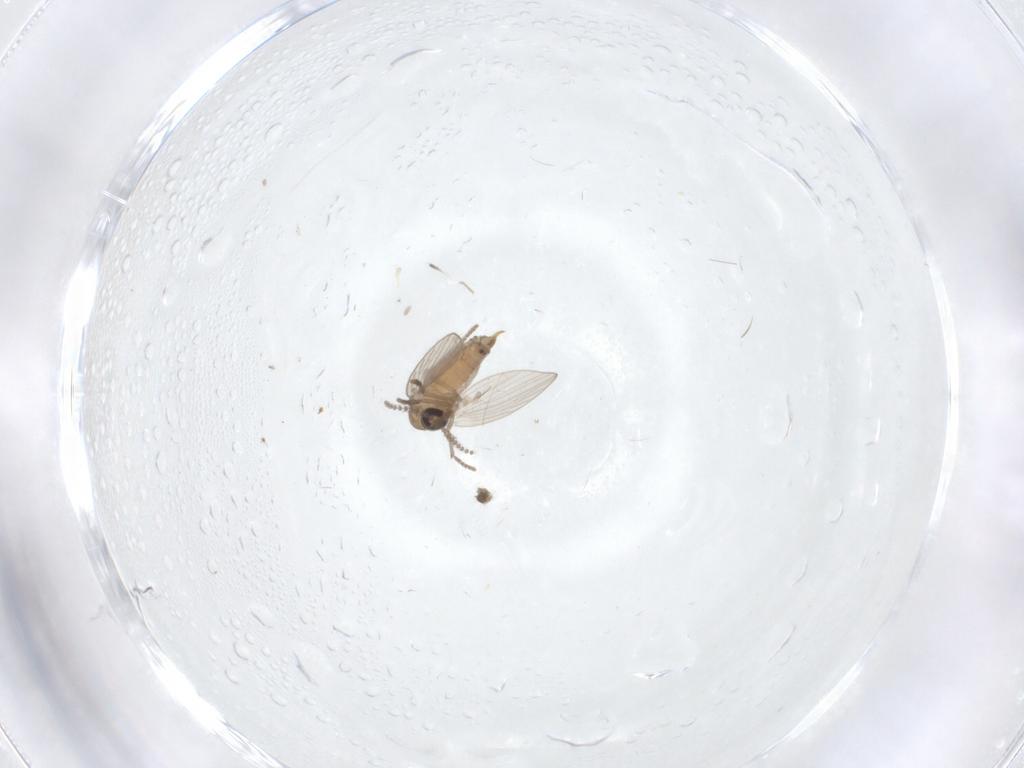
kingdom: Animalia
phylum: Arthropoda
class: Insecta
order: Diptera
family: Psychodidae
